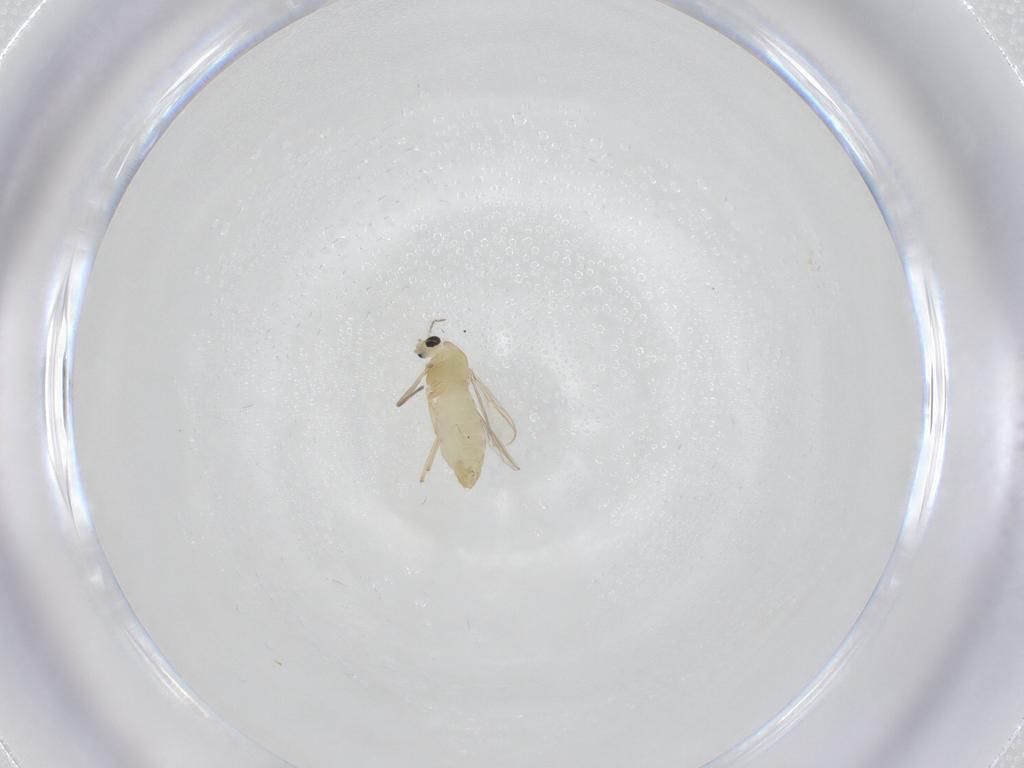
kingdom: Animalia
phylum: Arthropoda
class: Insecta
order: Diptera
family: Chironomidae
